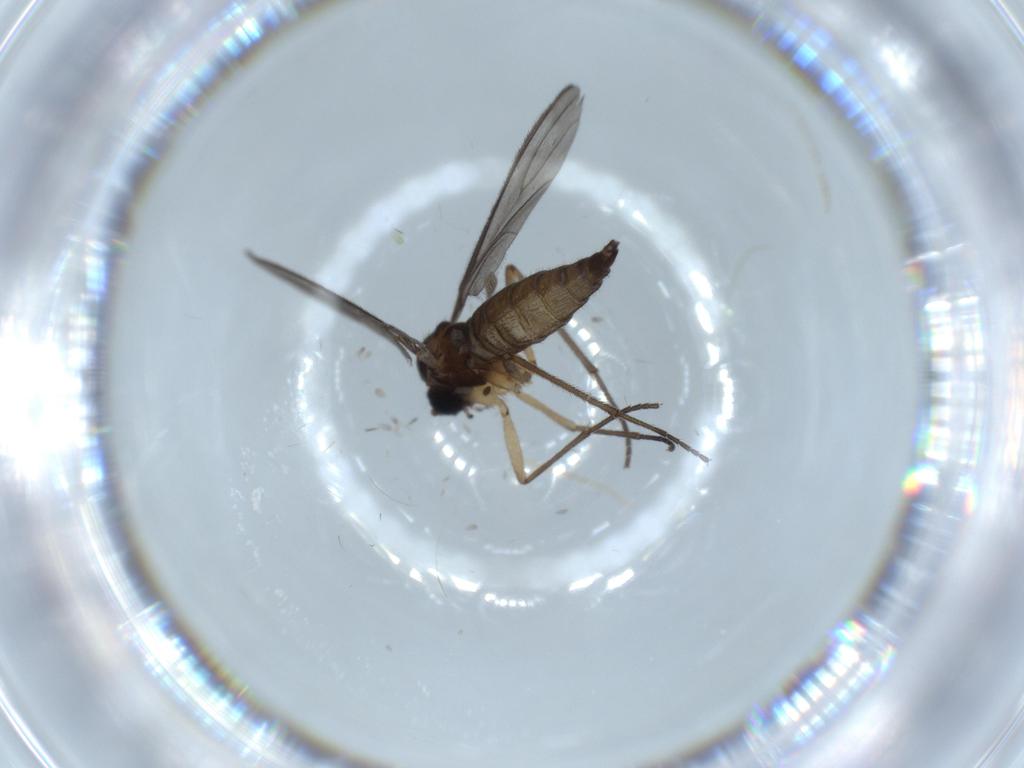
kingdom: Animalia
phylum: Arthropoda
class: Insecta
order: Diptera
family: Sciaridae
